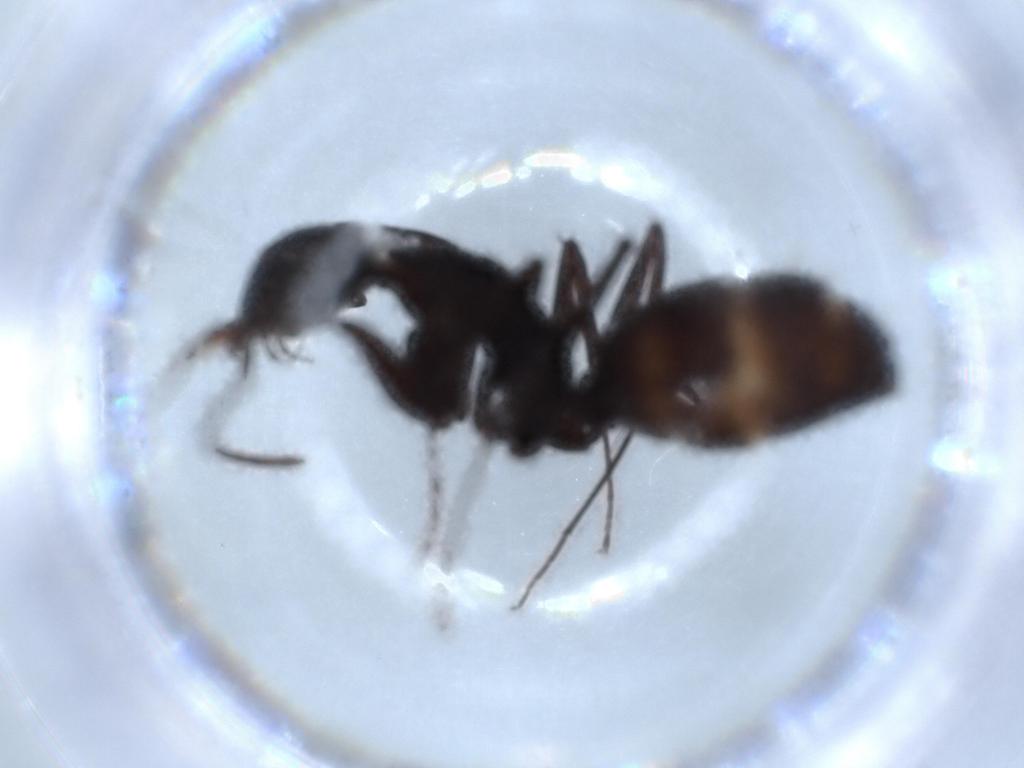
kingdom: Animalia
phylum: Arthropoda
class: Insecta
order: Hymenoptera
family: Formicidae
